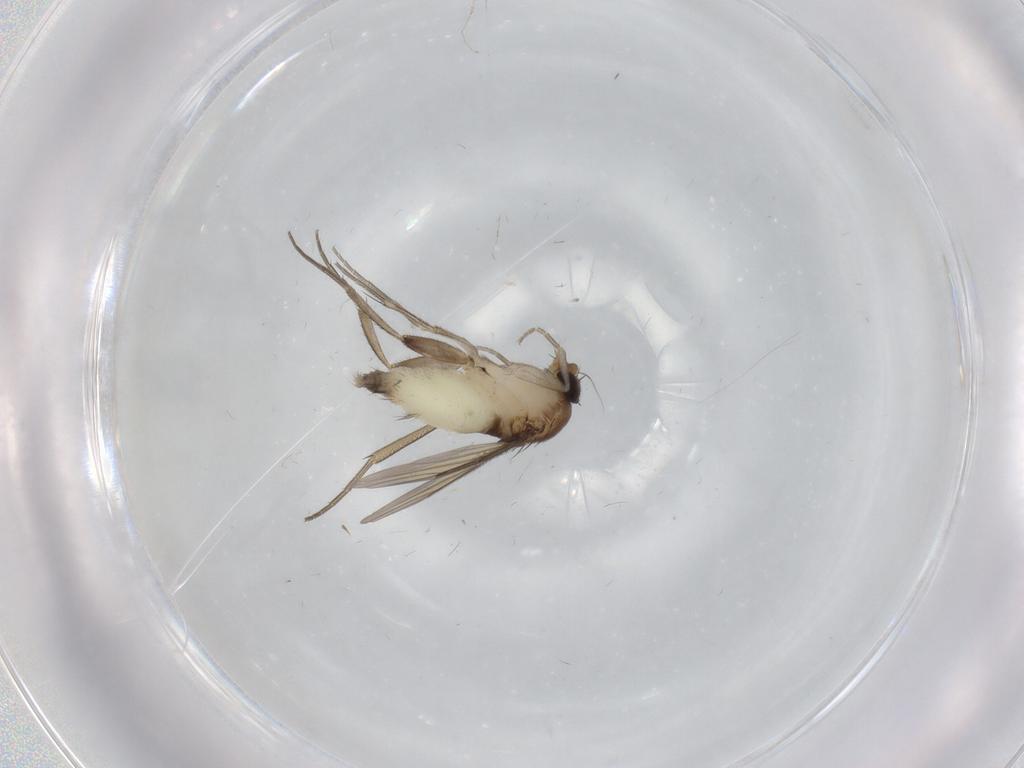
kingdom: Animalia
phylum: Arthropoda
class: Insecta
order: Diptera
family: Phoridae
